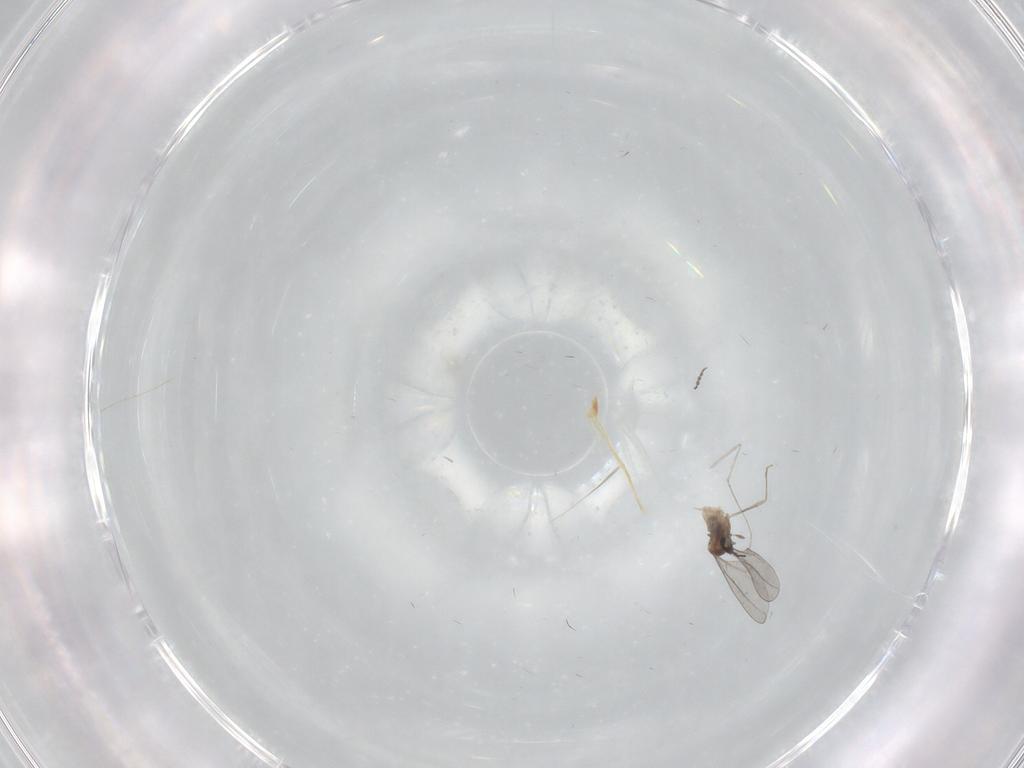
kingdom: Animalia
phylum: Arthropoda
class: Insecta
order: Diptera
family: Phoridae
